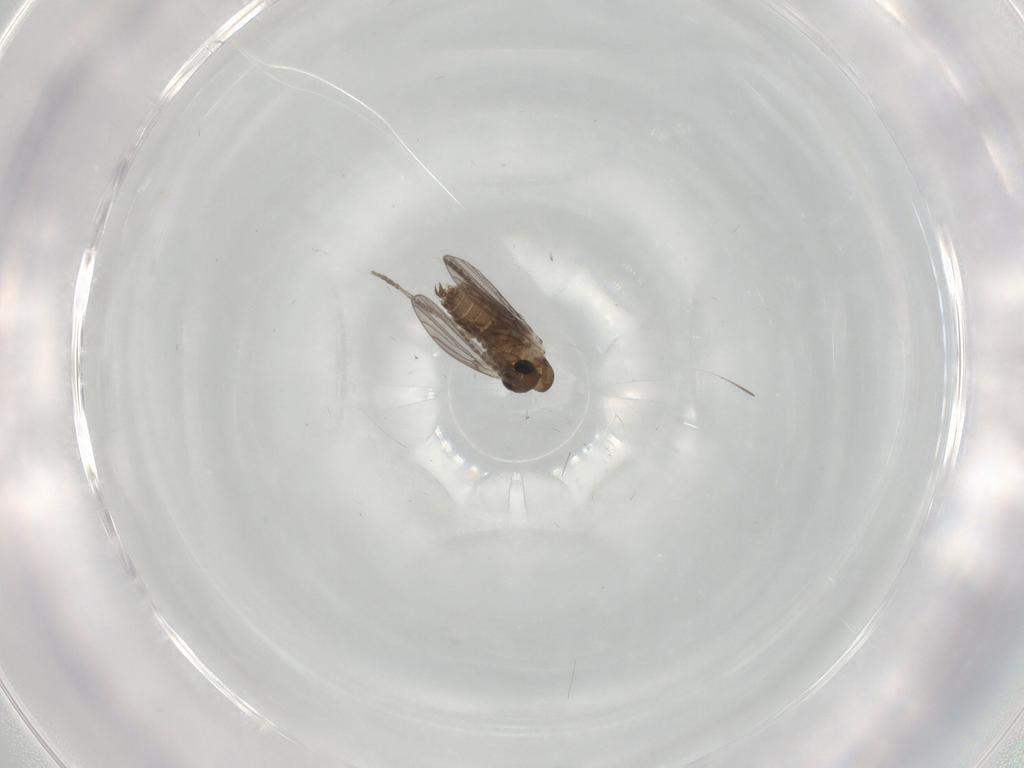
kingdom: Animalia
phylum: Arthropoda
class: Insecta
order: Diptera
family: Cecidomyiidae
